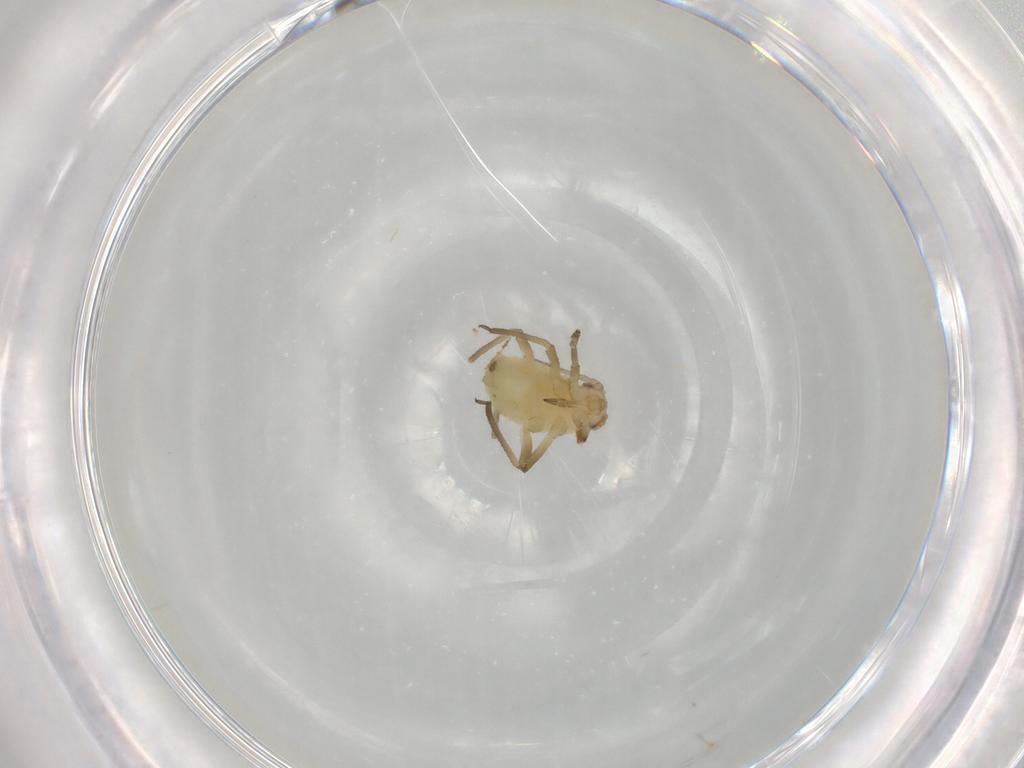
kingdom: Animalia
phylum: Arthropoda
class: Insecta
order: Hemiptera
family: Aphididae
